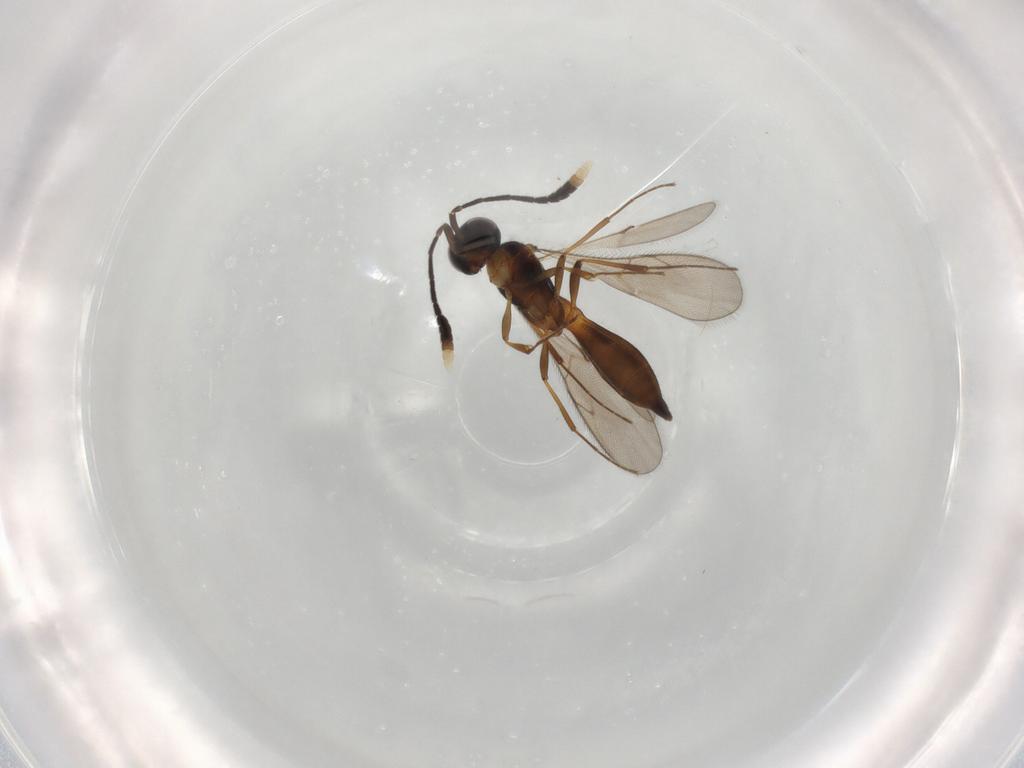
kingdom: Animalia
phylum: Arthropoda
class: Insecta
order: Hymenoptera
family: Scelionidae
